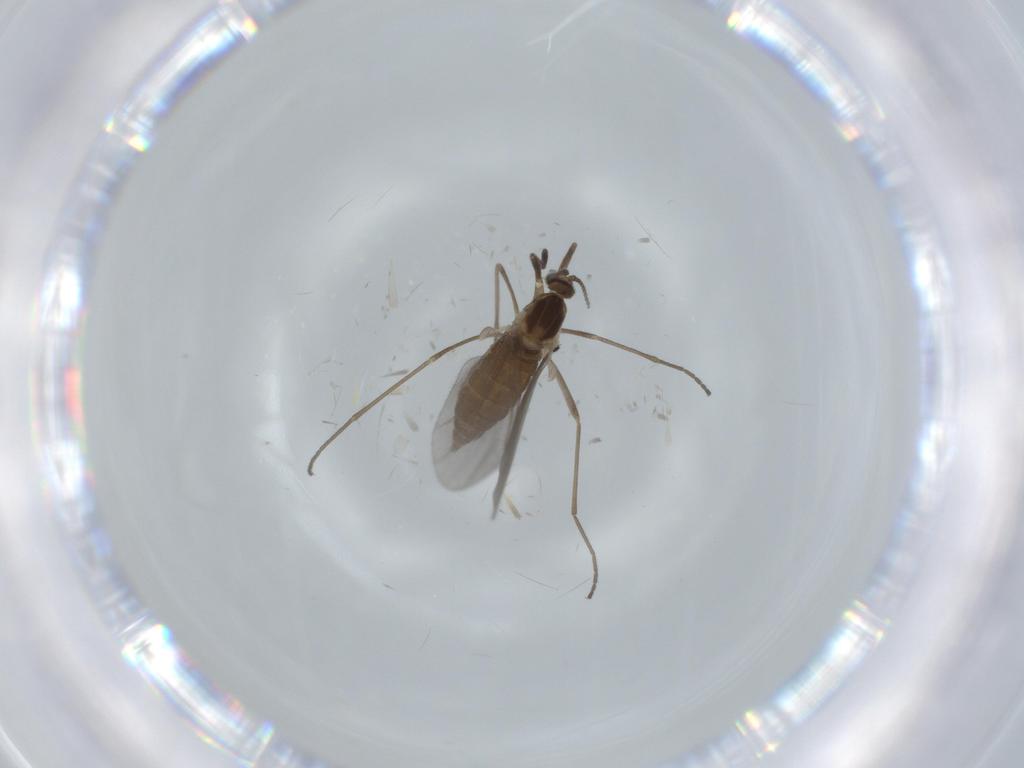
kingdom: Animalia
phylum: Arthropoda
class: Insecta
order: Diptera
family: Cecidomyiidae
